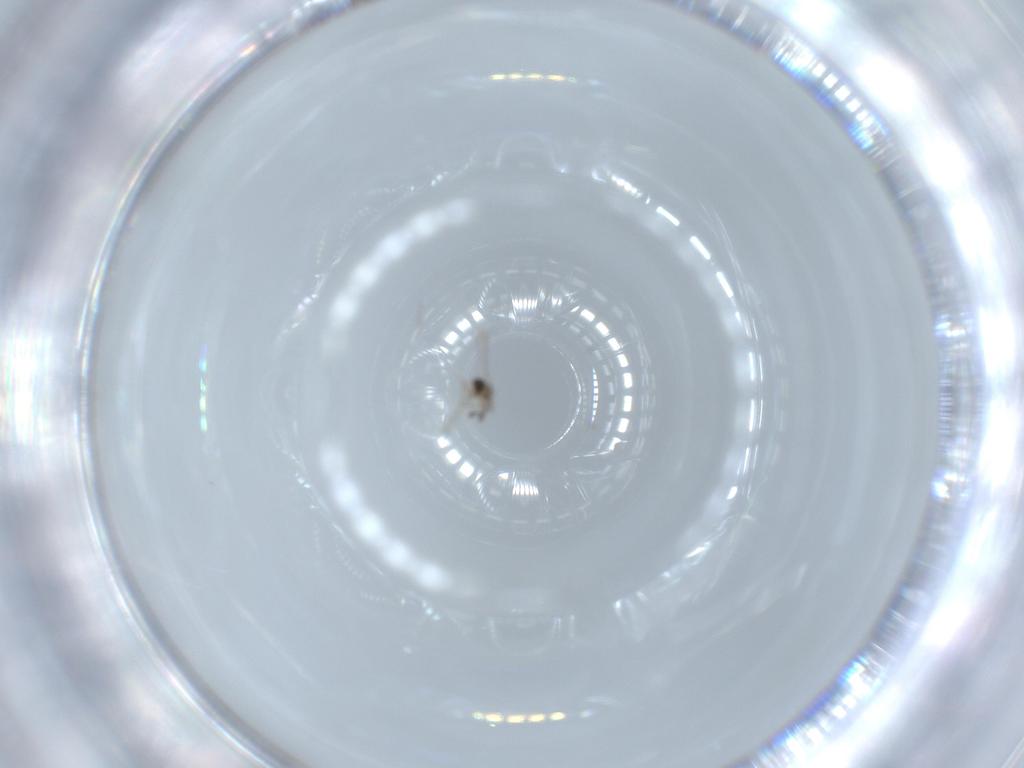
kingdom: Animalia
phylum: Arthropoda
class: Insecta
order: Hymenoptera
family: Mymaridae
